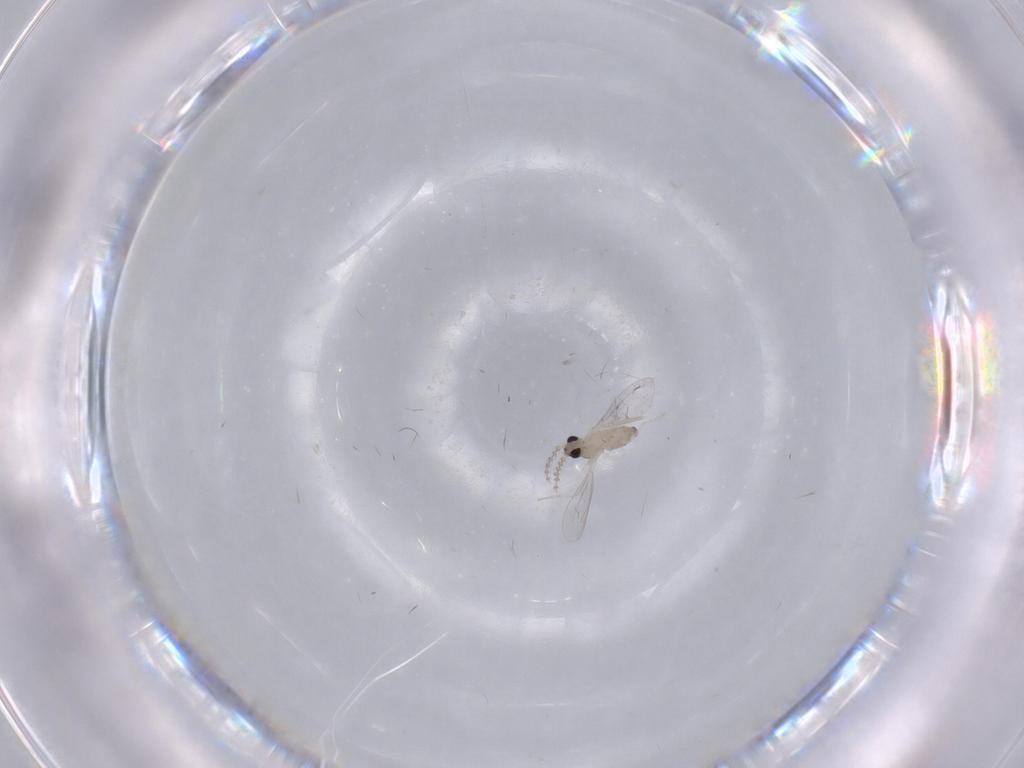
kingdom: Animalia
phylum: Arthropoda
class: Insecta
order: Diptera
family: Cecidomyiidae
